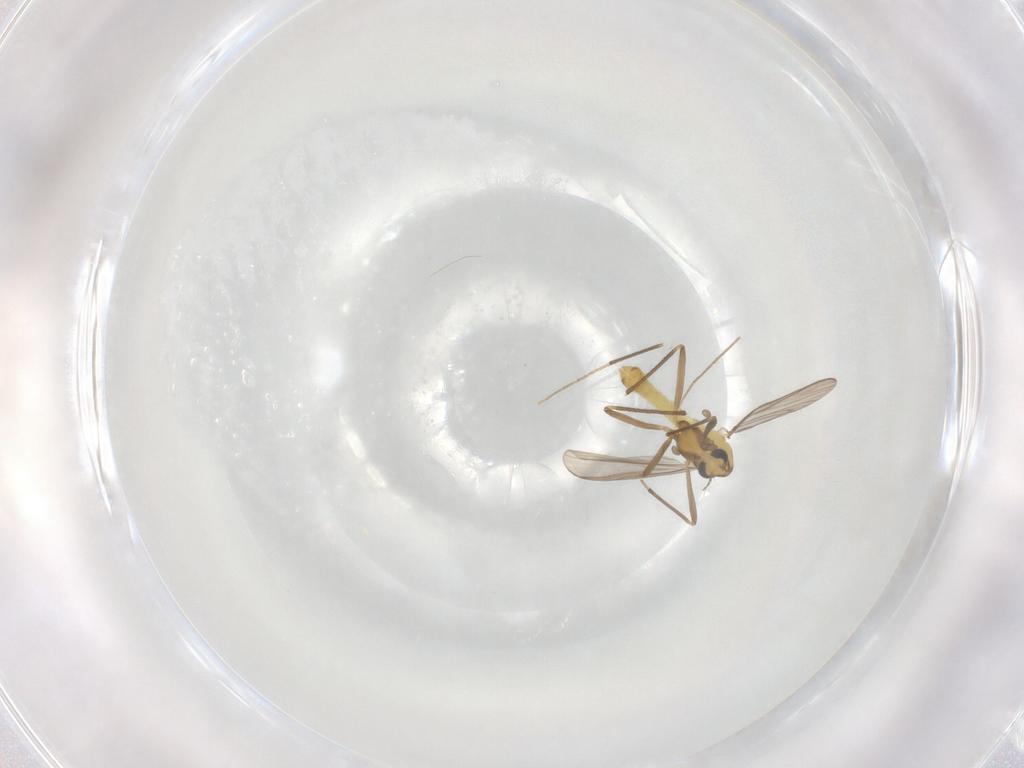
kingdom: Animalia
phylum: Arthropoda
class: Insecta
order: Diptera
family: Chironomidae
